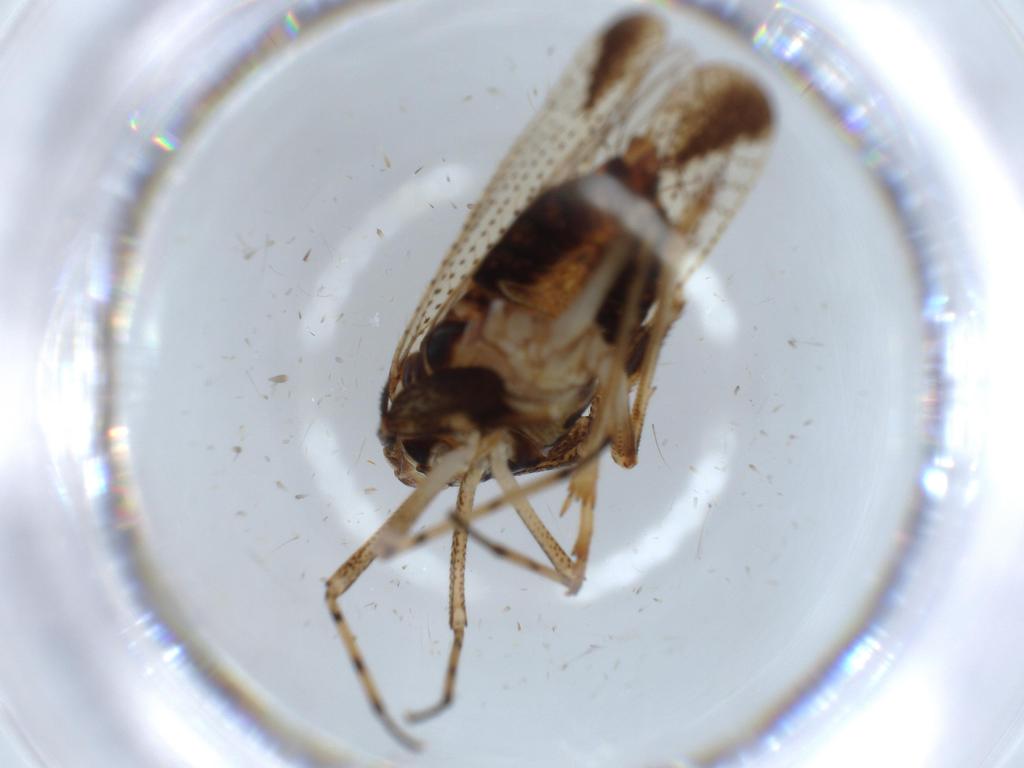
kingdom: Animalia
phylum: Arthropoda
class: Insecta
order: Hemiptera
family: Delphacidae
